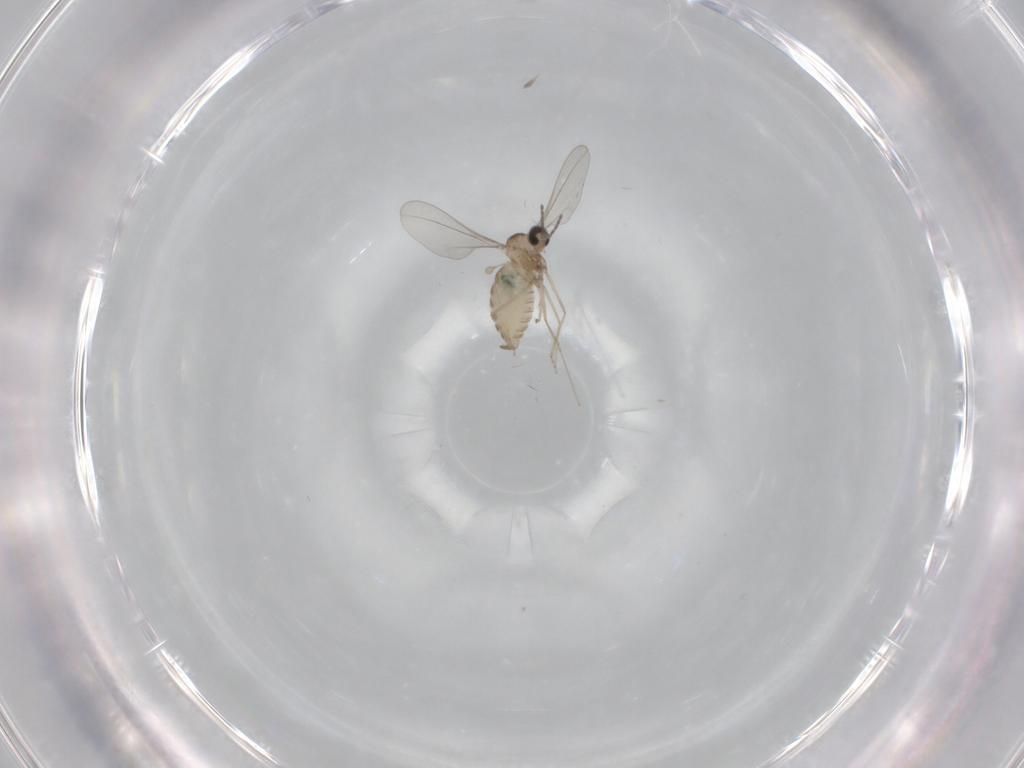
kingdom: Animalia
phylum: Arthropoda
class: Insecta
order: Diptera
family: Cecidomyiidae
